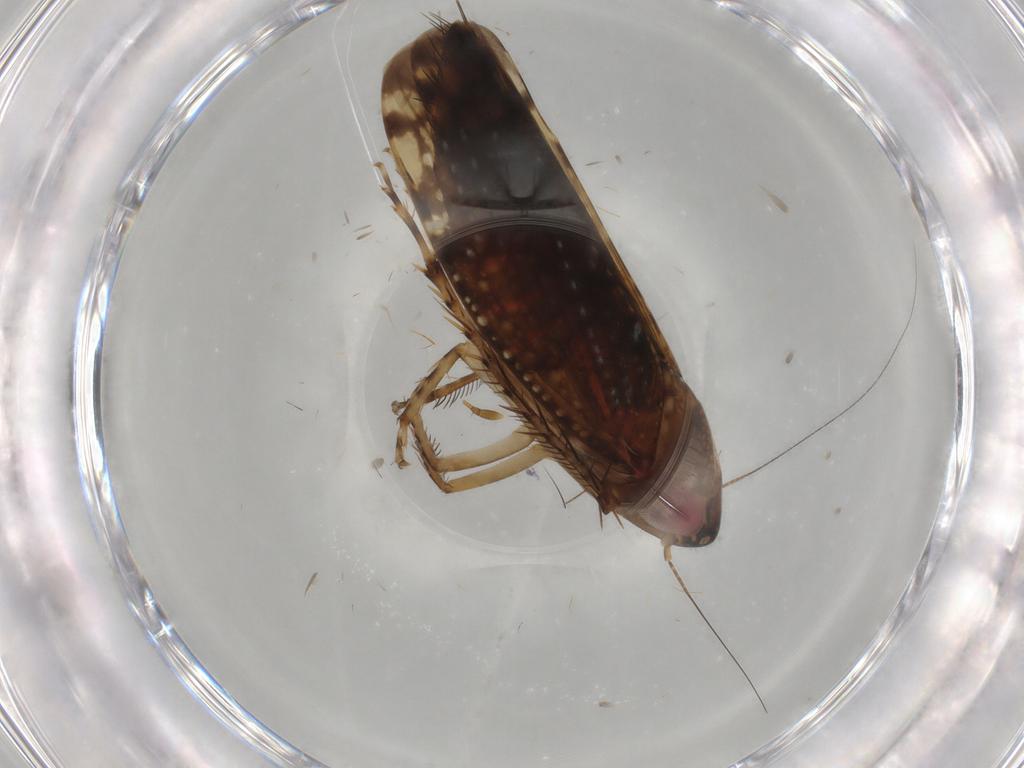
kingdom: Animalia
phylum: Arthropoda
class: Insecta
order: Hemiptera
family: Cicadellidae
